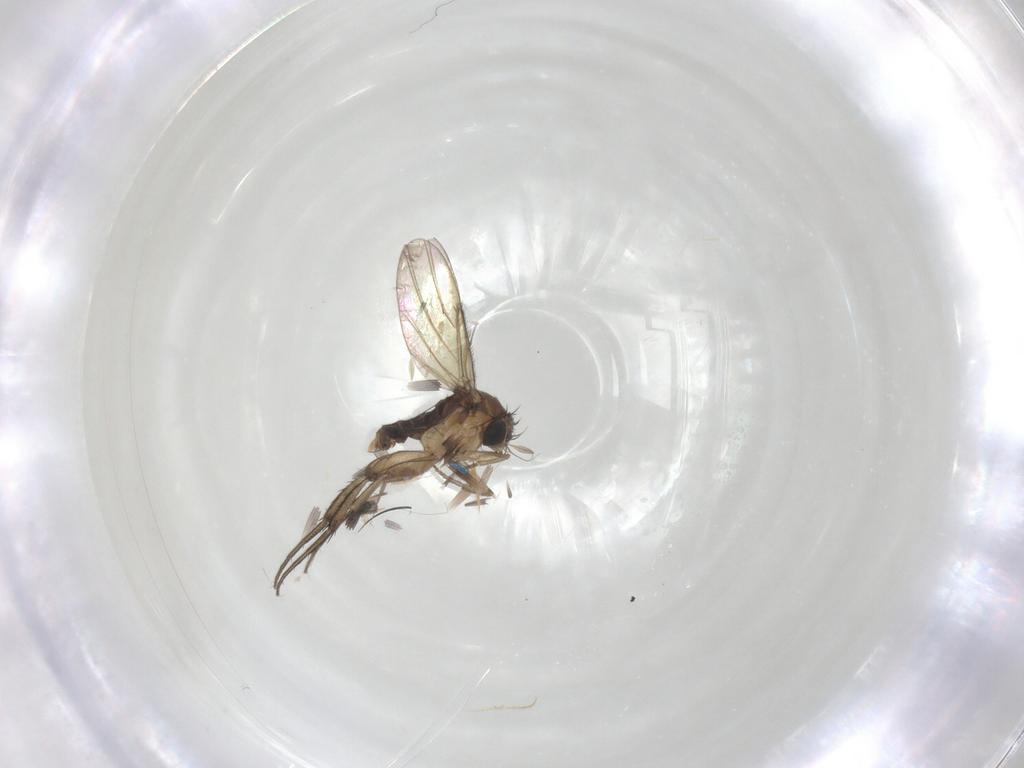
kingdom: Animalia
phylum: Arthropoda
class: Insecta
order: Diptera
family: Phoridae
